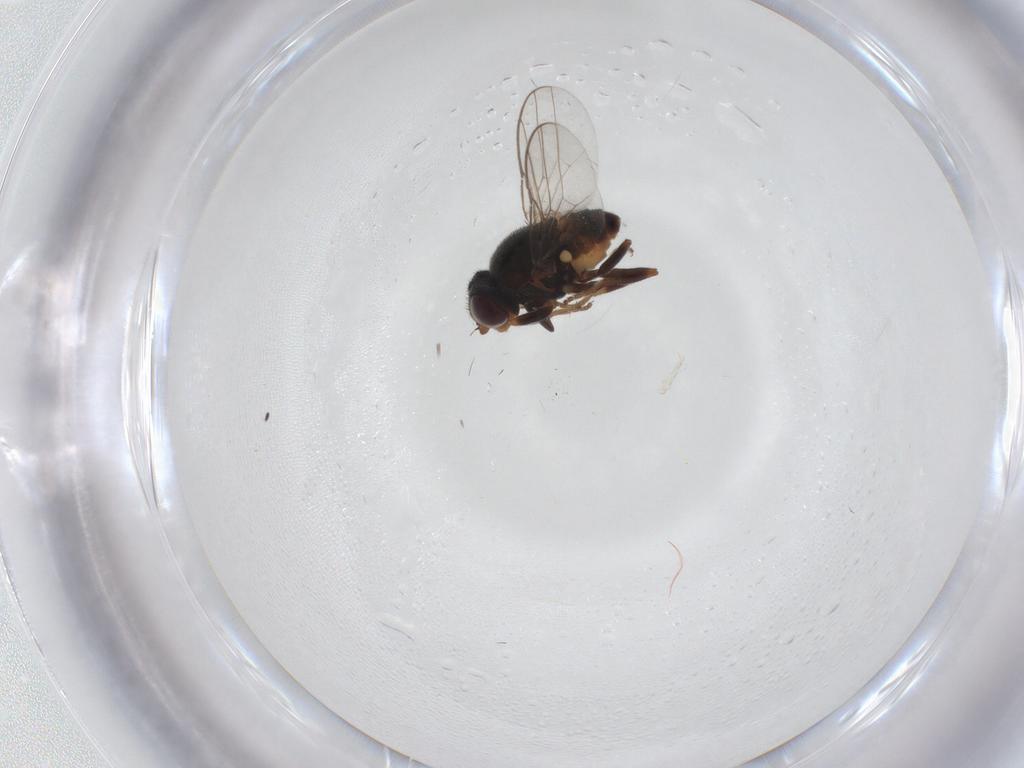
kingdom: Animalia
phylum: Arthropoda
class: Insecta
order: Diptera
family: Chloropidae
